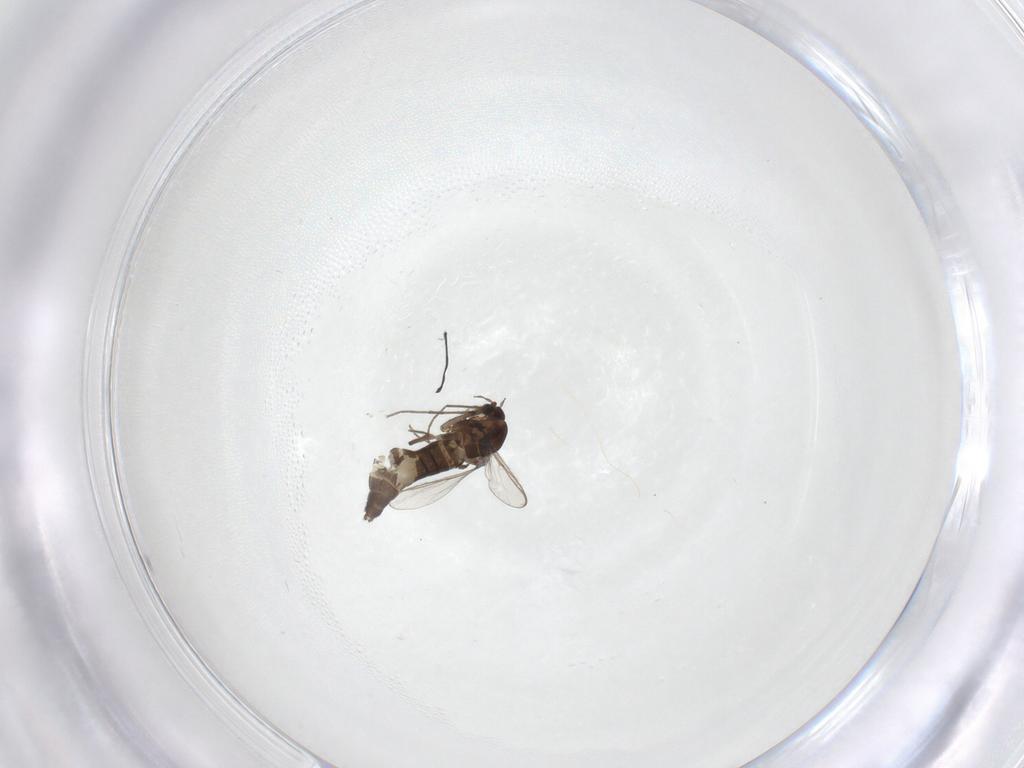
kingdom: Animalia
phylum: Arthropoda
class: Insecta
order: Diptera
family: Chironomidae
